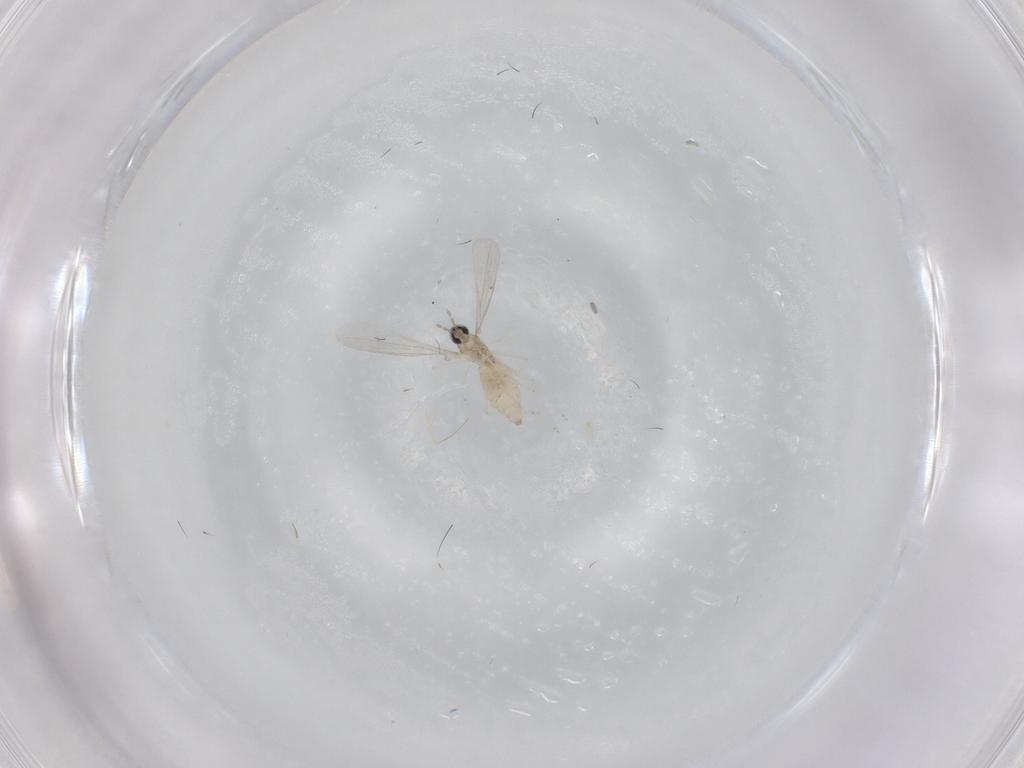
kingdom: Animalia
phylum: Arthropoda
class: Insecta
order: Diptera
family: Cecidomyiidae
